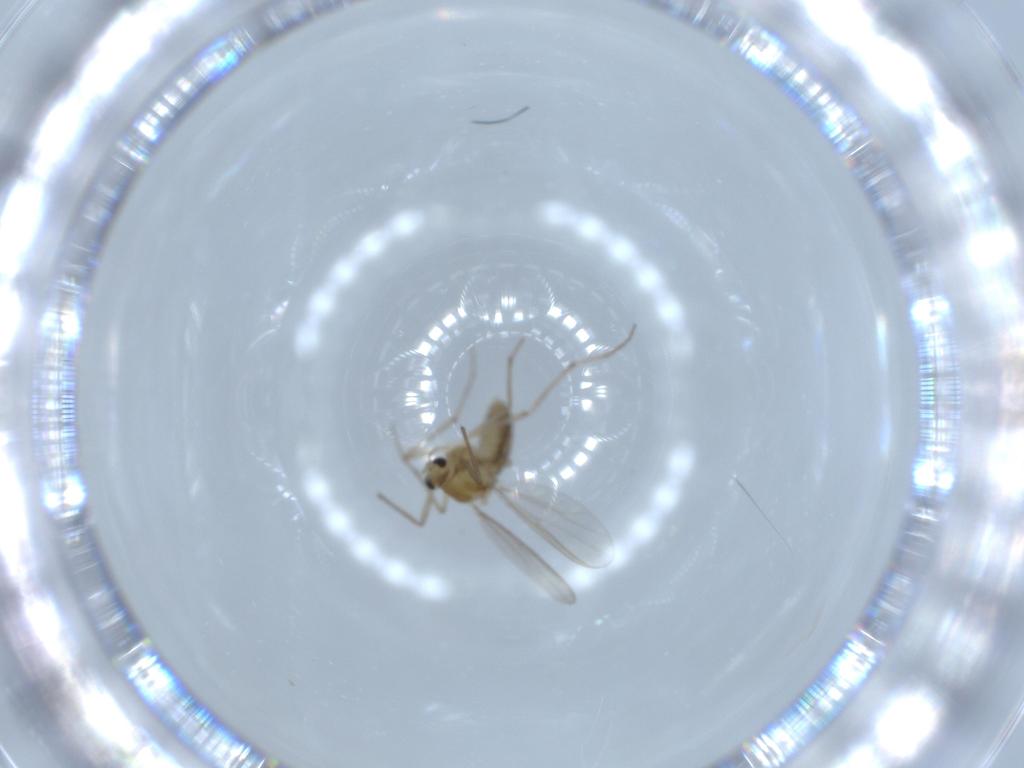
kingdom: Animalia
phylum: Arthropoda
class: Insecta
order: Diptera
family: Chironomidae
